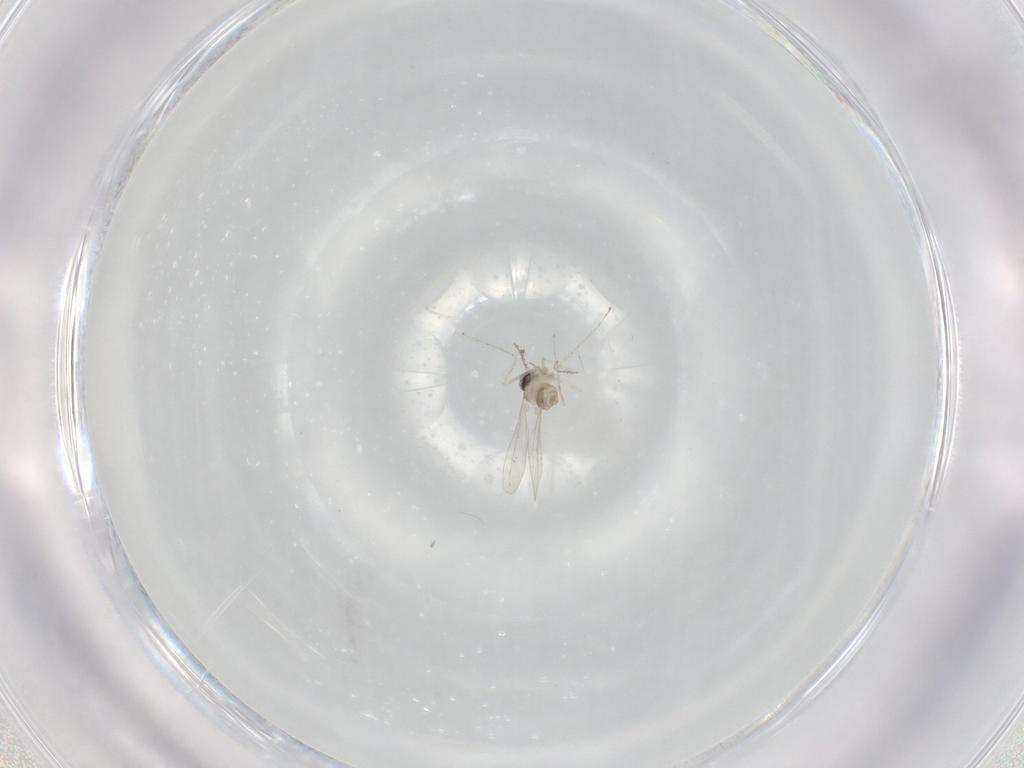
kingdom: Animalia
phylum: Arthropoda
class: Insecta
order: Diptera
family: Cecidomyiidae
